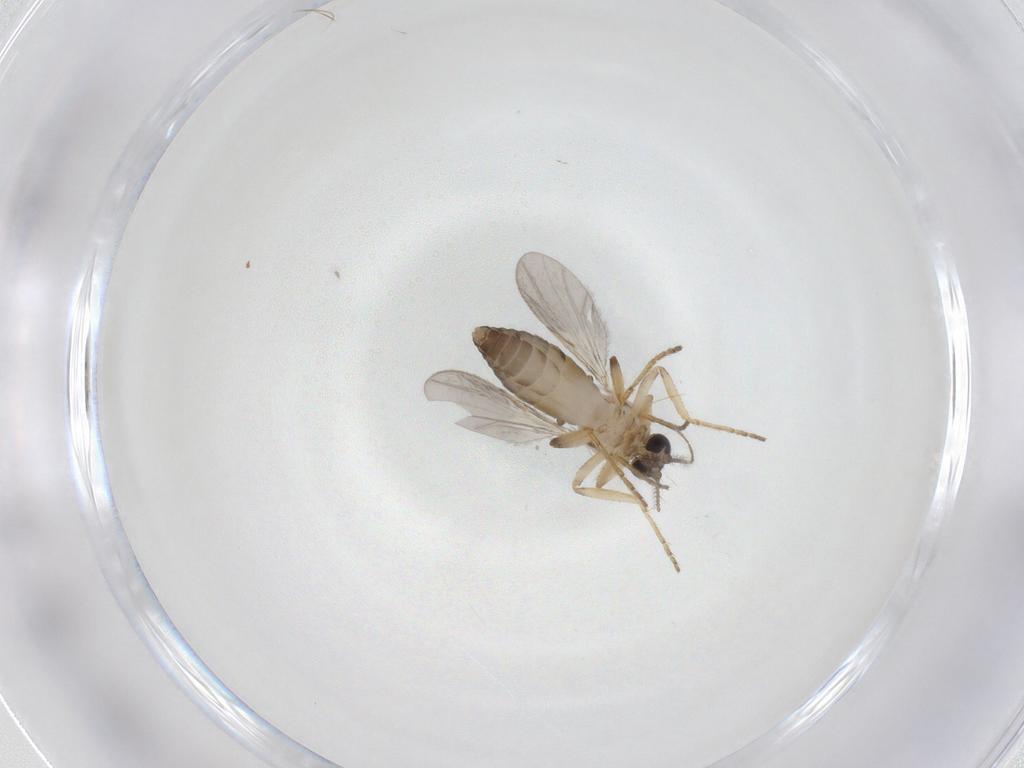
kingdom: Animalia
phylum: Arthropoda
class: Insecta
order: Diptera
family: Ceratopogonidae
